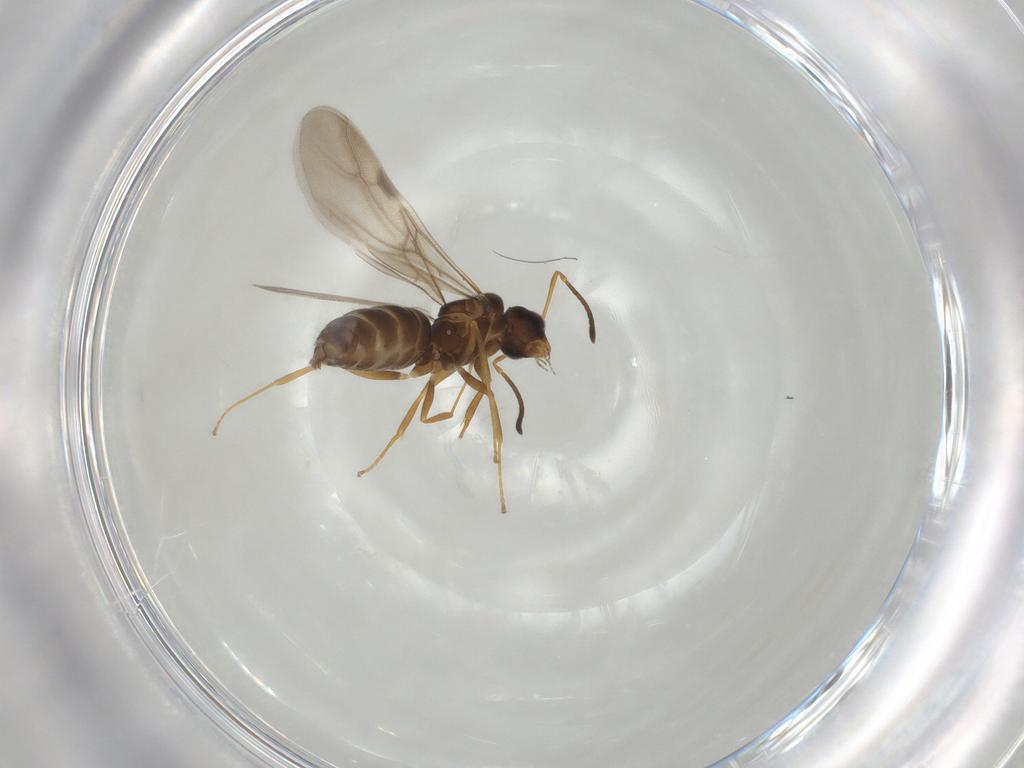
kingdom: Animalia
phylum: Arthropoda
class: Insecta
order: Hymenoptera
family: Formicidae
